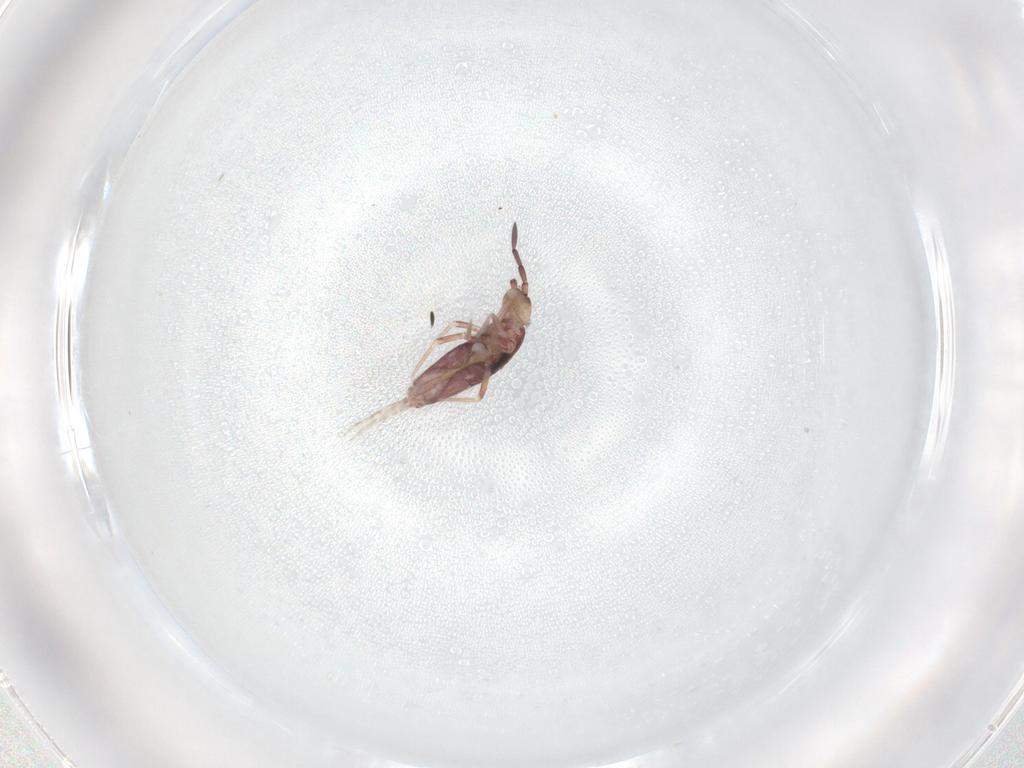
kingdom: Animalia
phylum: Arthropoda
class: Collembola
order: Entomobryomorpha
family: Entomobryidae
